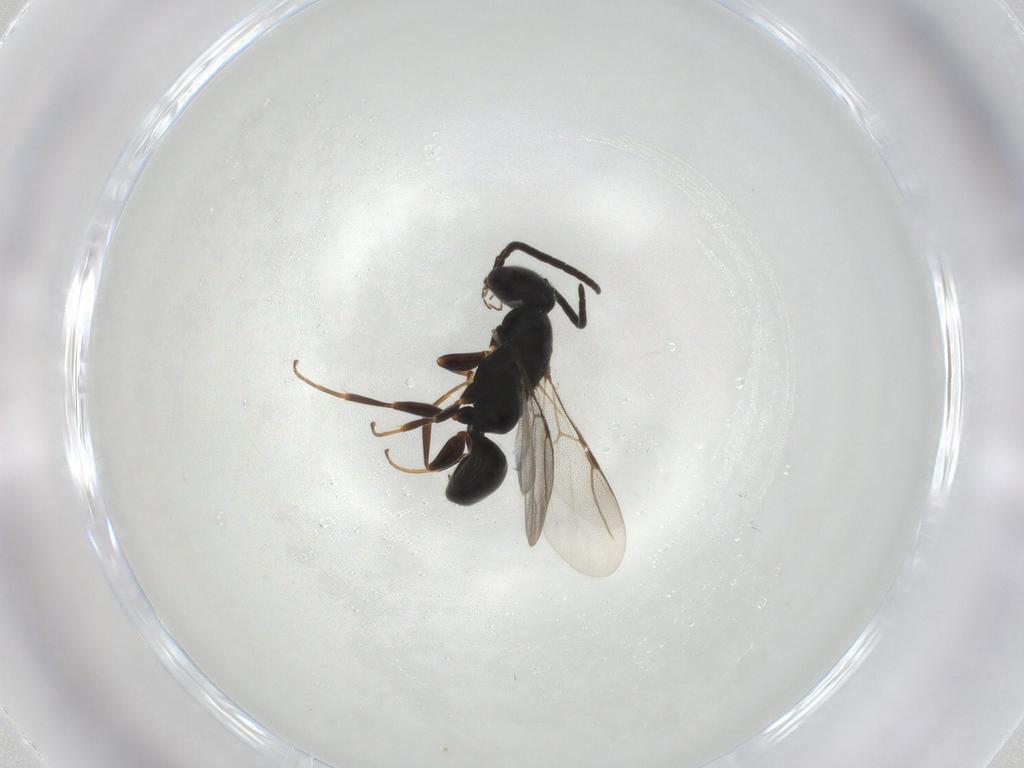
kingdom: Animalia
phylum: Arthropoda
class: Insecta
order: Hymenoptera
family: Bethylidae
